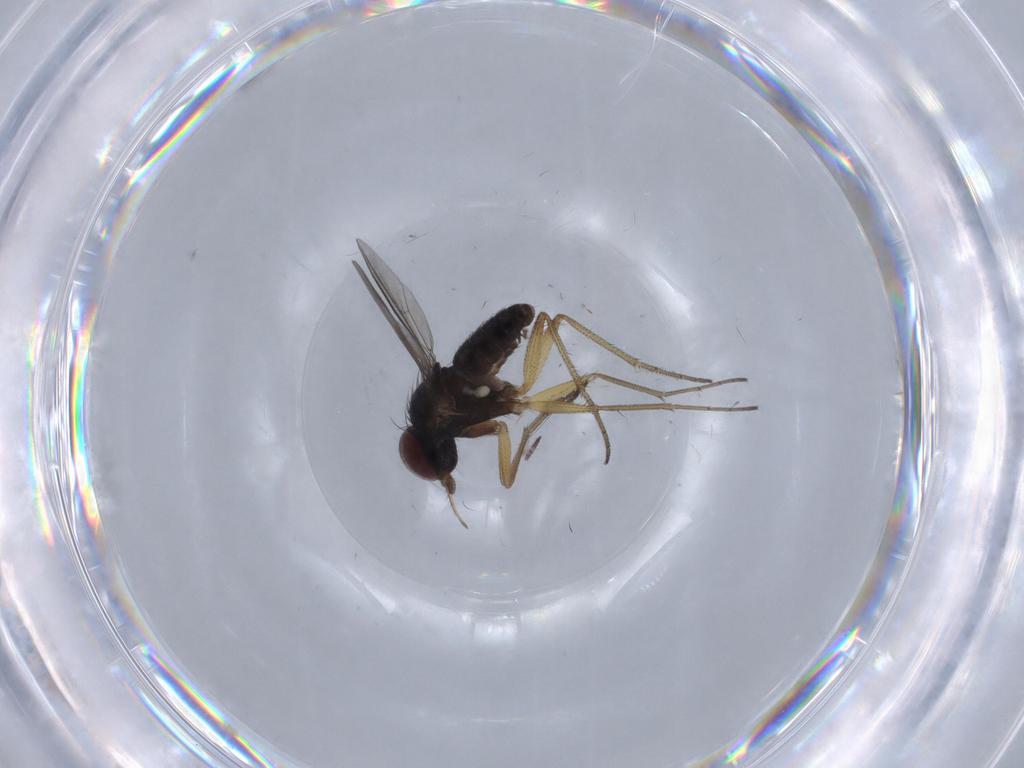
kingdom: Animalia
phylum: Arthropoda
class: Insecta
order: Diptera
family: Dolichopodidae
